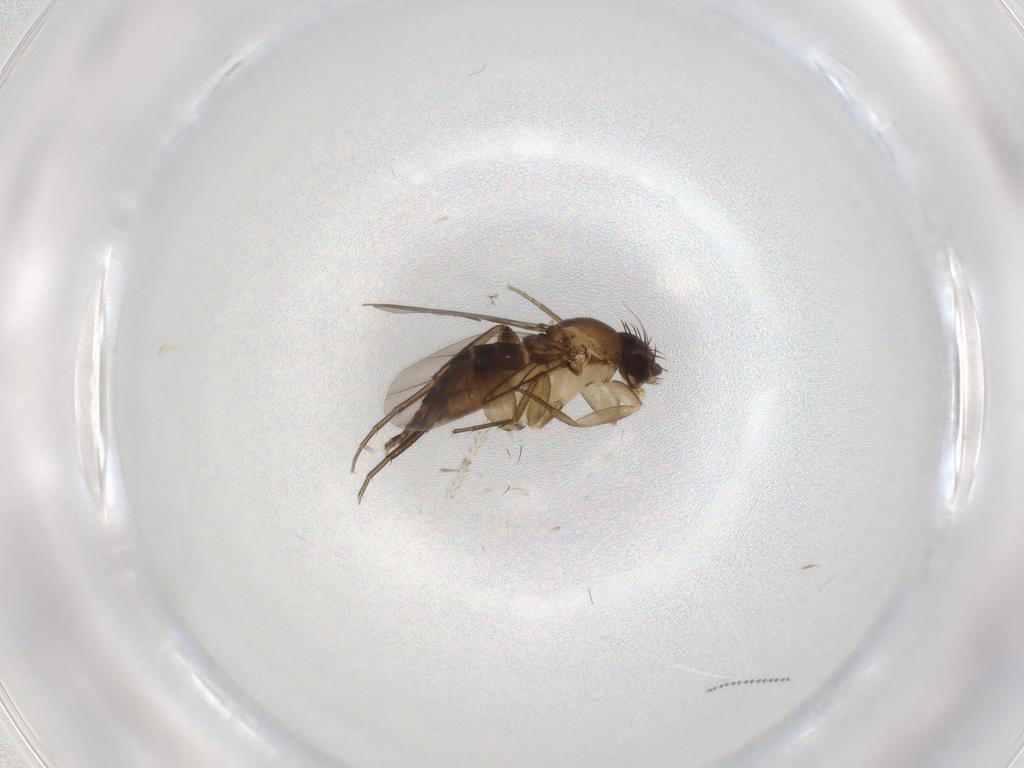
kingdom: Animalia
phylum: Arthropoda
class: Insecta
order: Diptera
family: Phoridae
